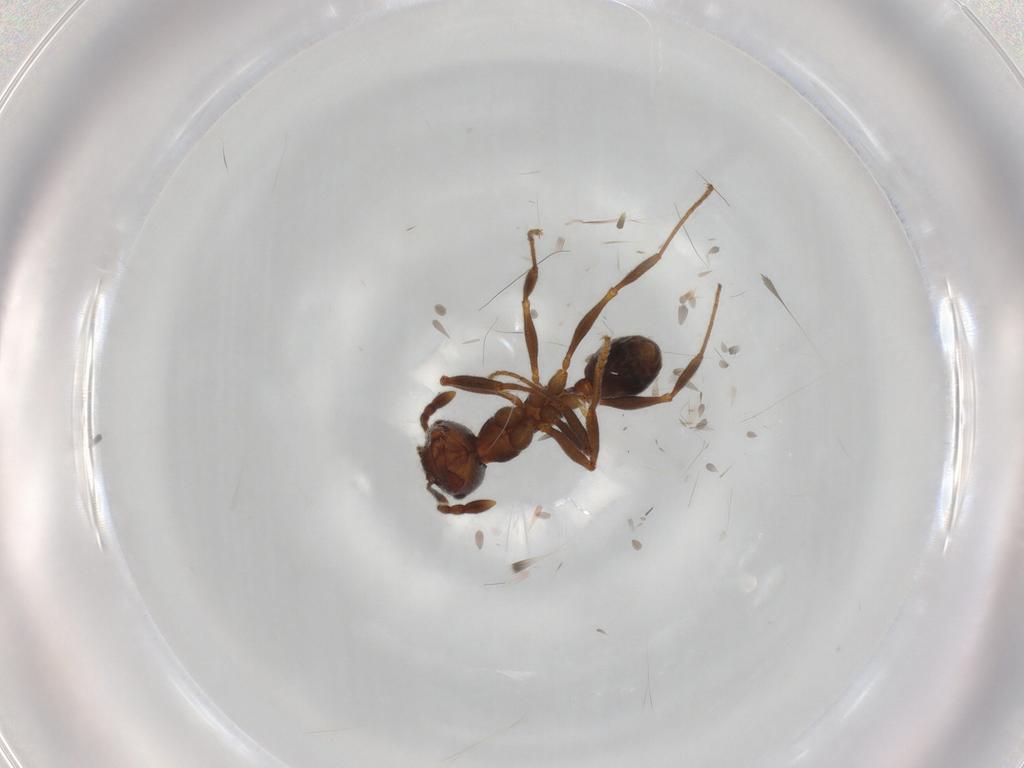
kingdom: Animalia
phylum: Arthropoda
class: Insecta
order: Hymenoptera
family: Formicidae
